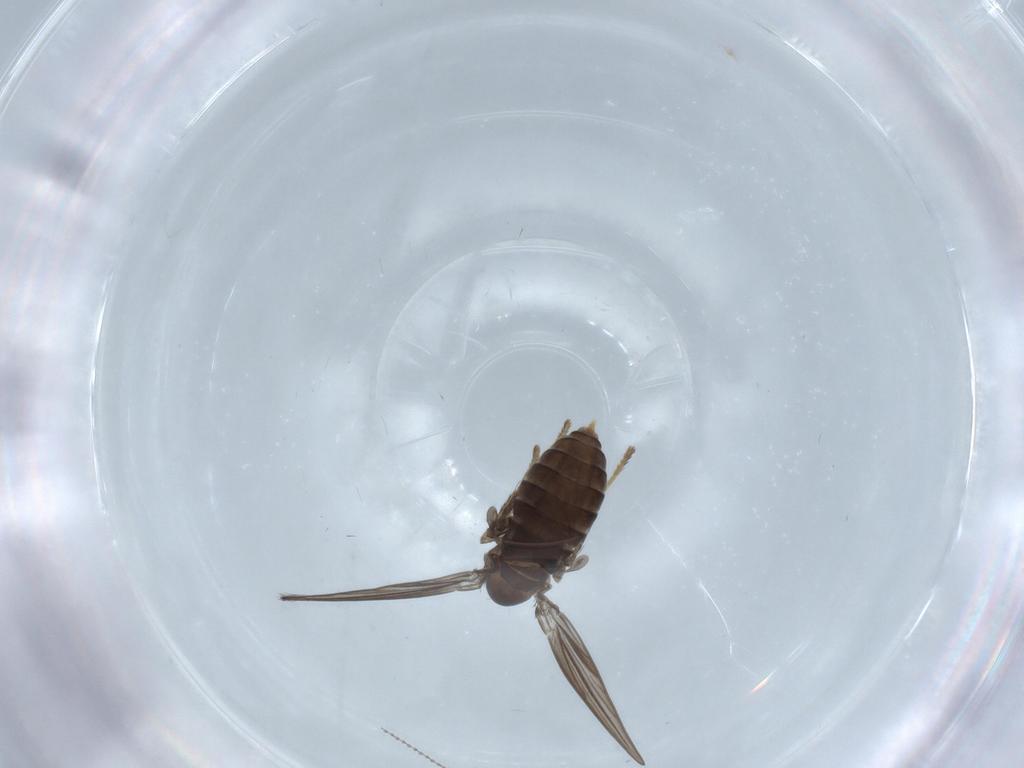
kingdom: Animalia
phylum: Arthropoda
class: Insecta
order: Diptera
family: Psychodidae
